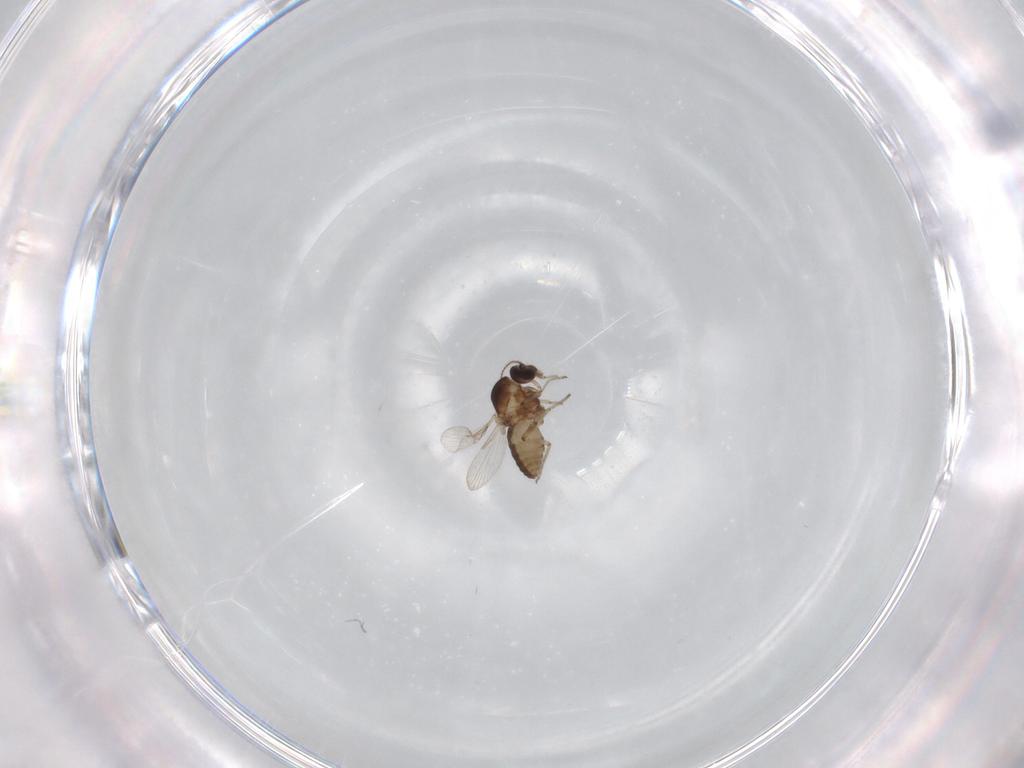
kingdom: Animalia
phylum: Arthropoda
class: Insecta
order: Diptera
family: Ceratopogonidae
